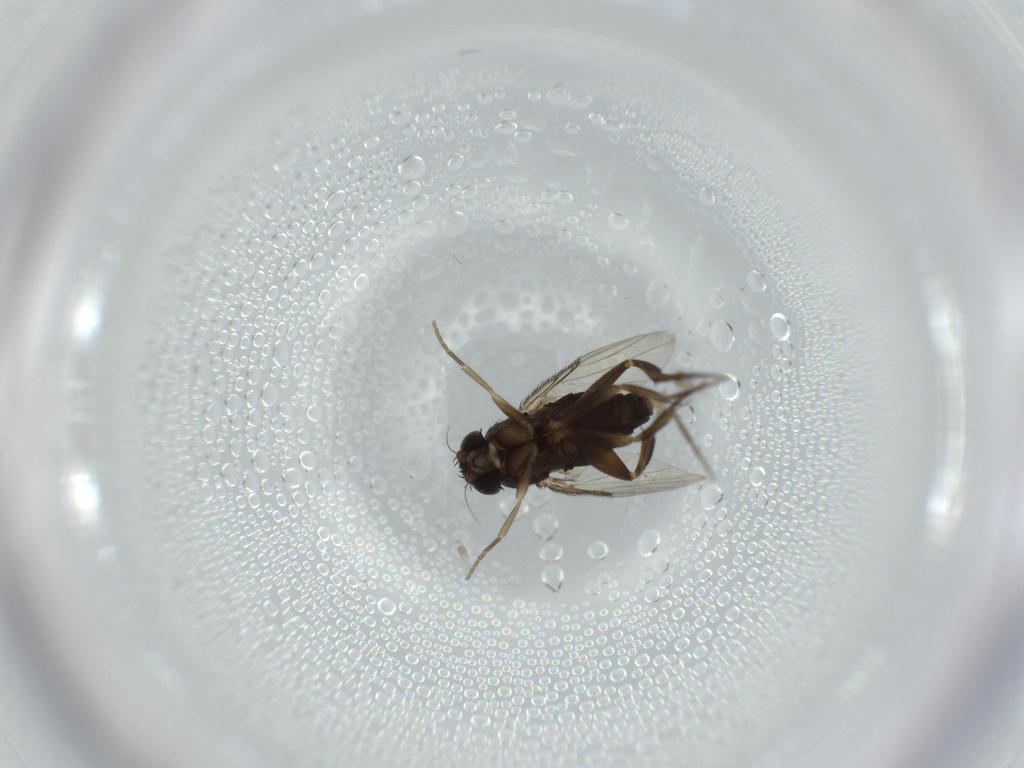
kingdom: Animalia
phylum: Arthropoda
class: Insecta
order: Diptera
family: Phoridae
